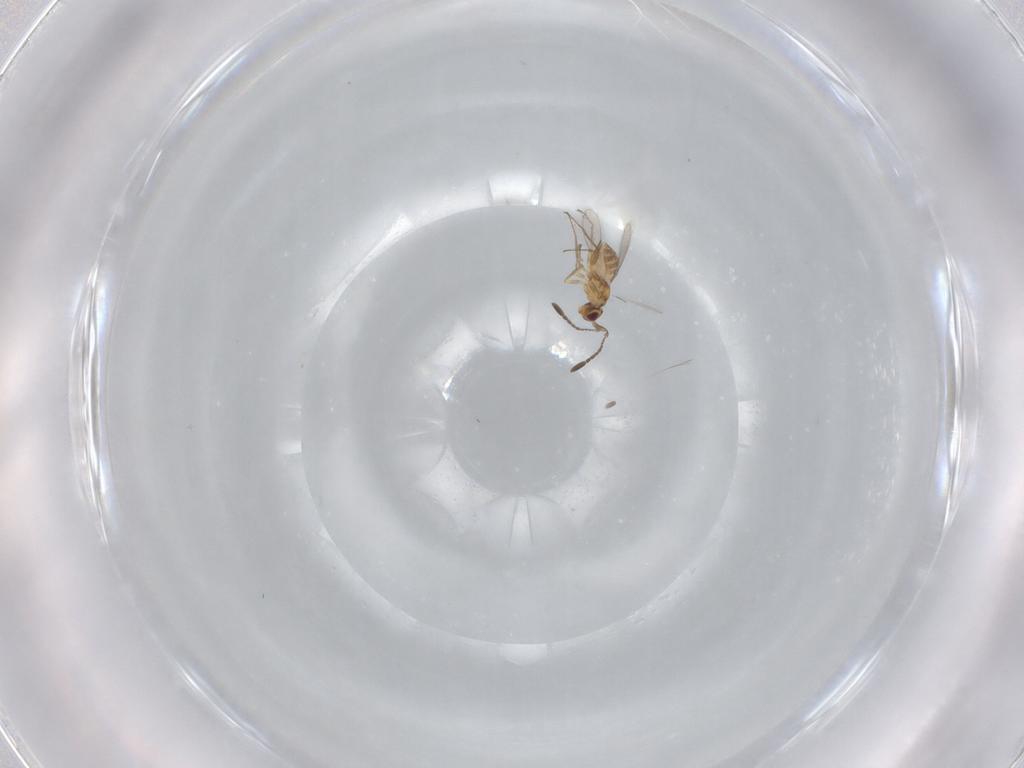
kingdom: Animalia
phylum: Arthropoda
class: Insecta
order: Hymenoptera
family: Mymaridae
